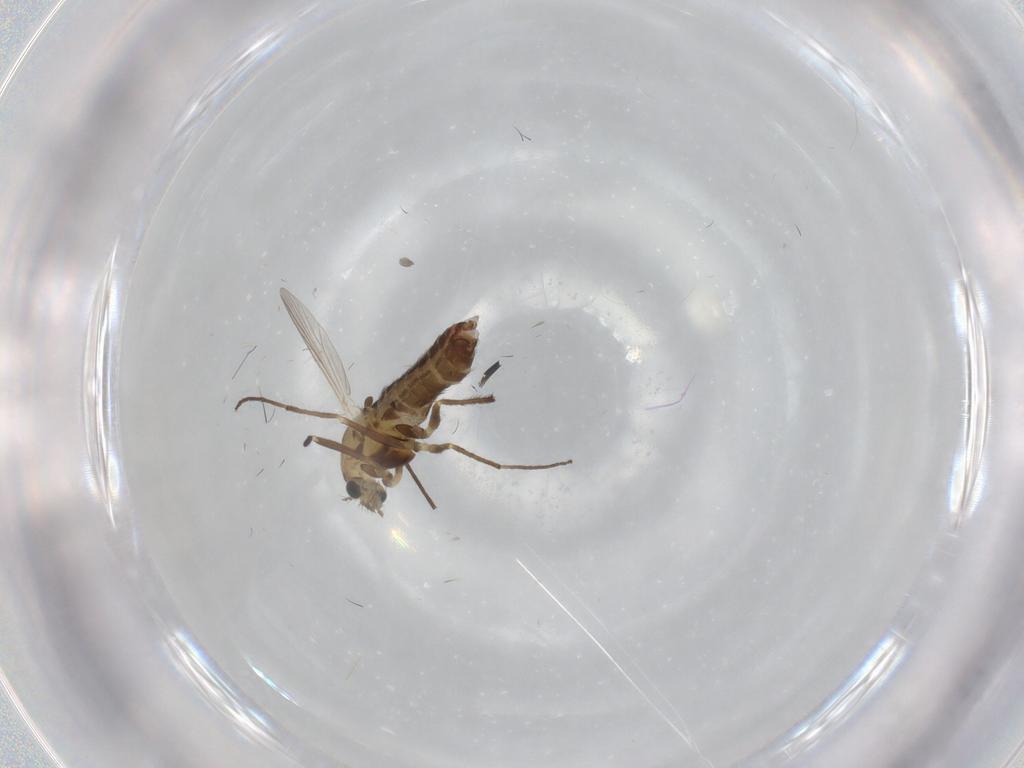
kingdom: Animalia
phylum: Arthropoda
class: Insecta
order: Diptera
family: Chironomidae
